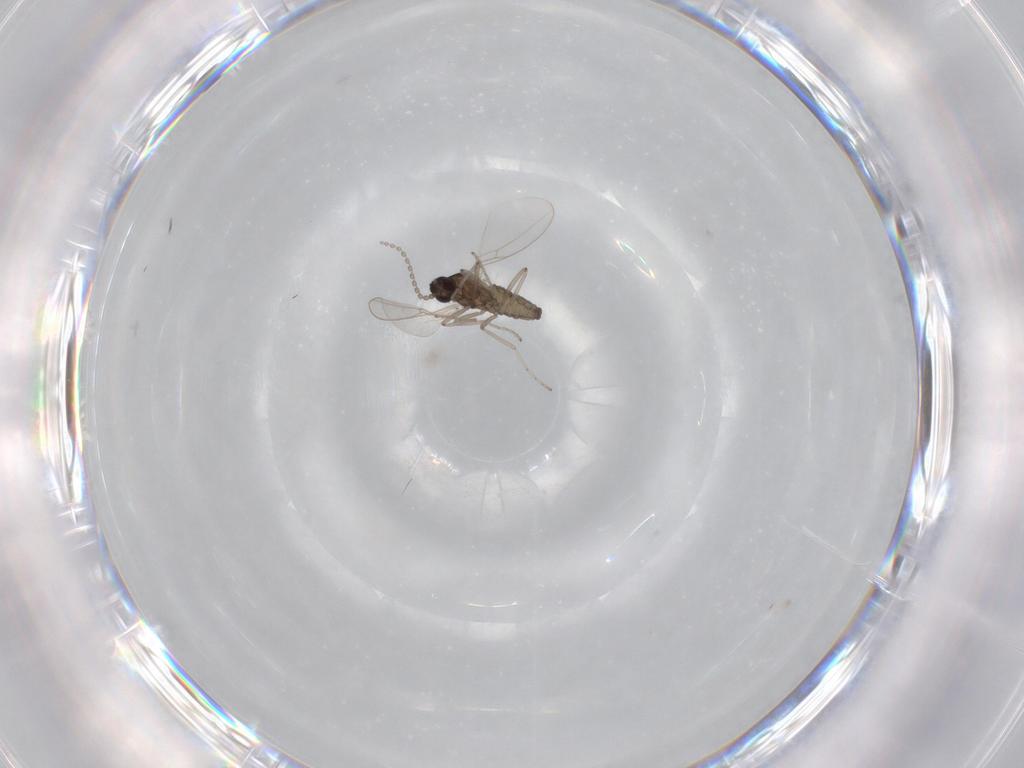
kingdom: Animalia
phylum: Arthropoda
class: Insecta
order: Diptera
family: Cecidomyiidae
